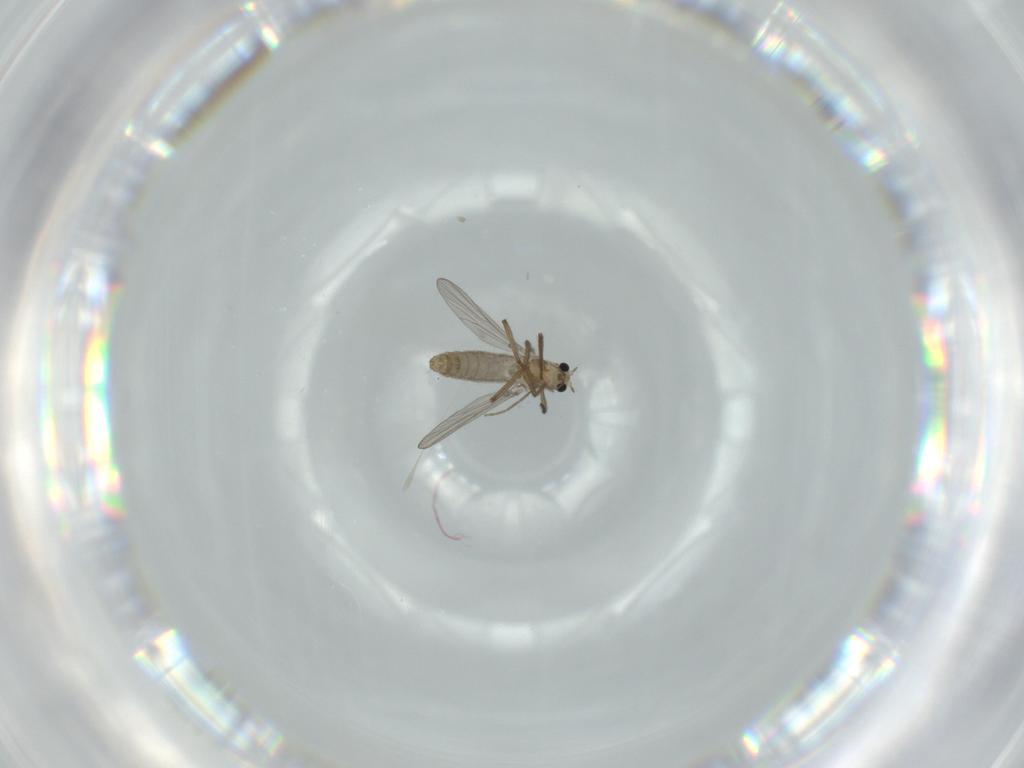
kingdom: Animalia
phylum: Arthropoda
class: Insecta
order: Diptera
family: Chironomidae
